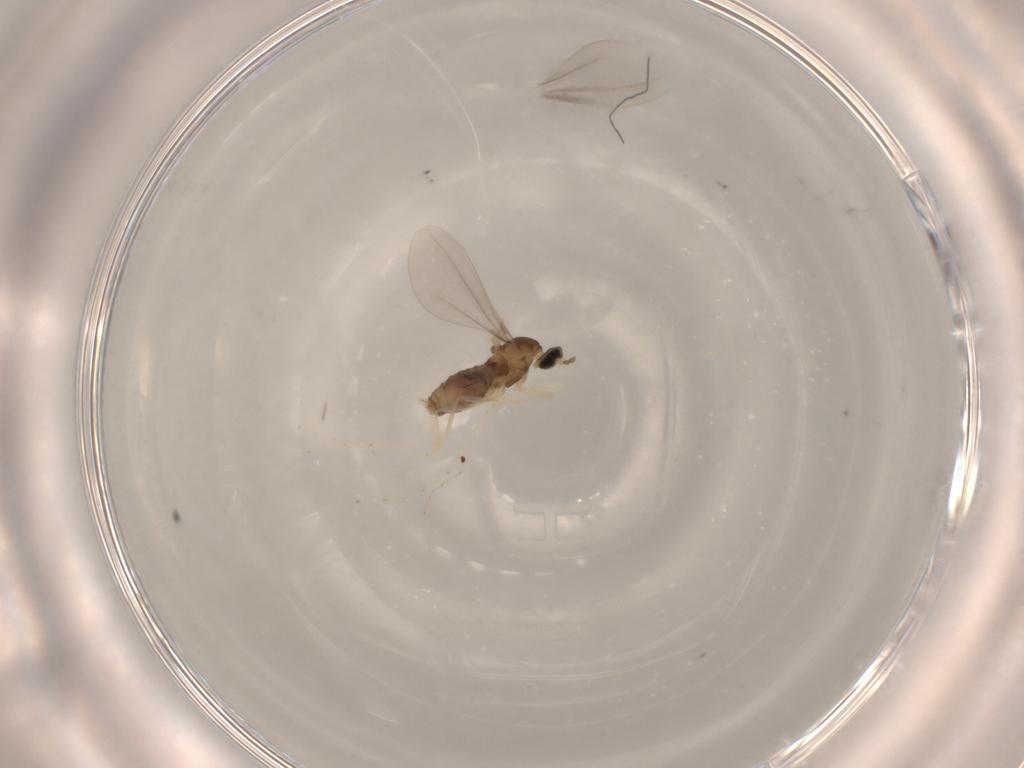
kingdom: Animalia
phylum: Arthropoda
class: Insecta
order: Diptera
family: Cecidomyiidae
